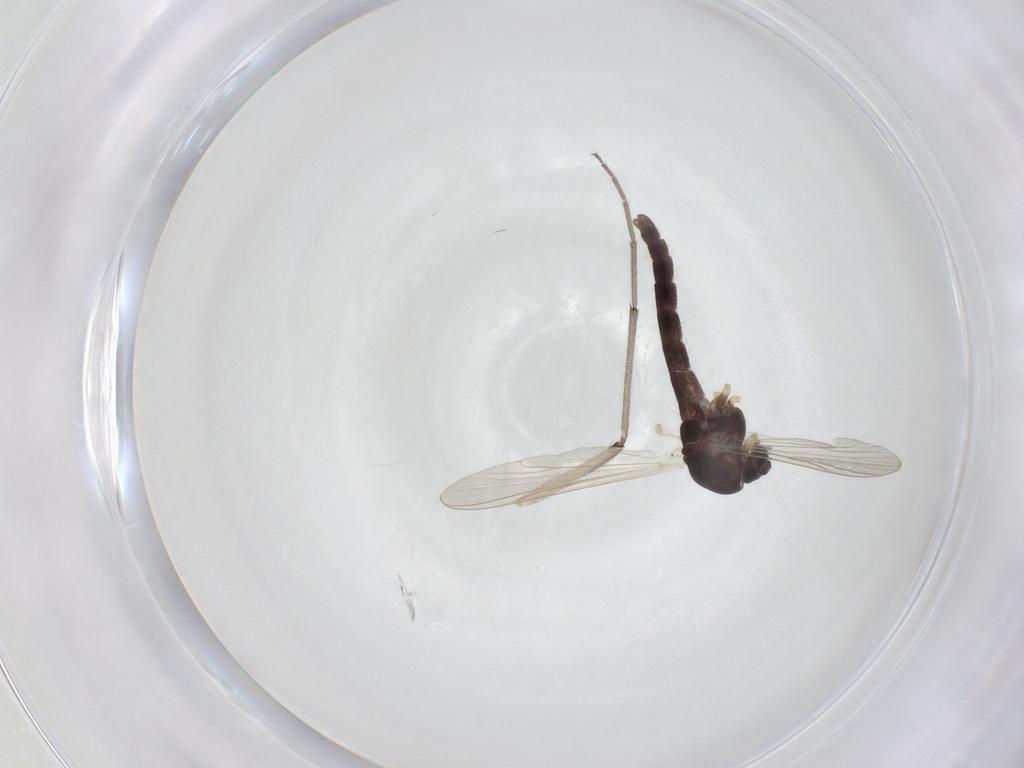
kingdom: Animalia
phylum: Arthropoda
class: Insecta
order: Diptera
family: Chironomidae
